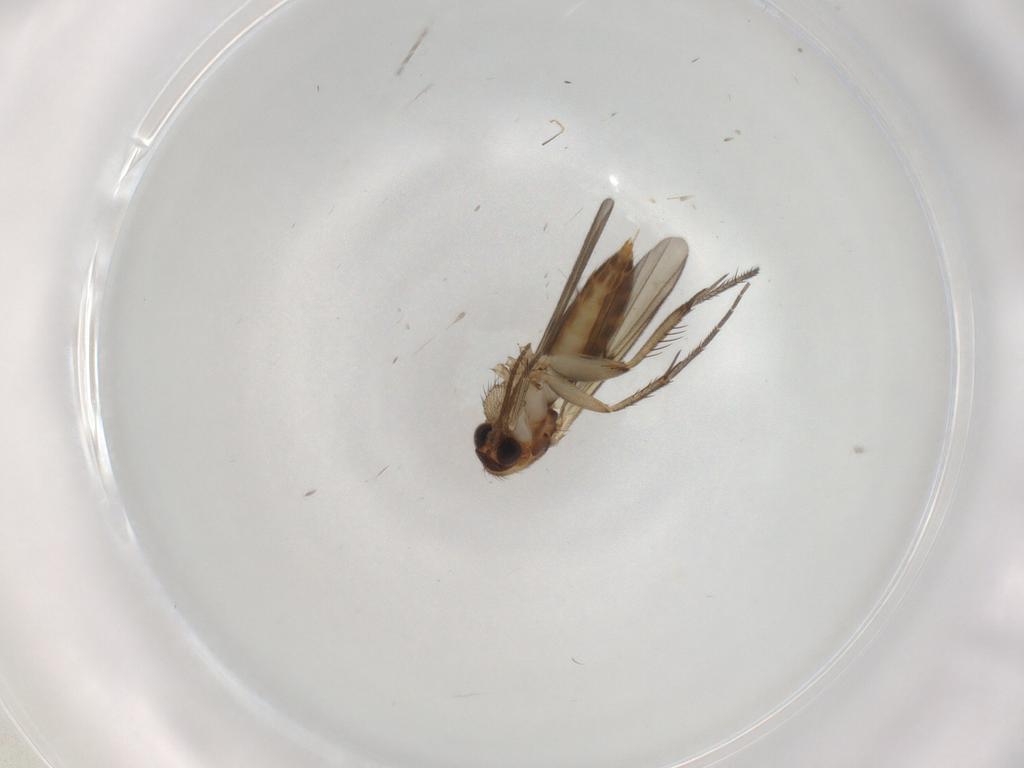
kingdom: Animalia
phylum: Arthropoda
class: Insecta
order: Diptera
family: Mycetophilidae
